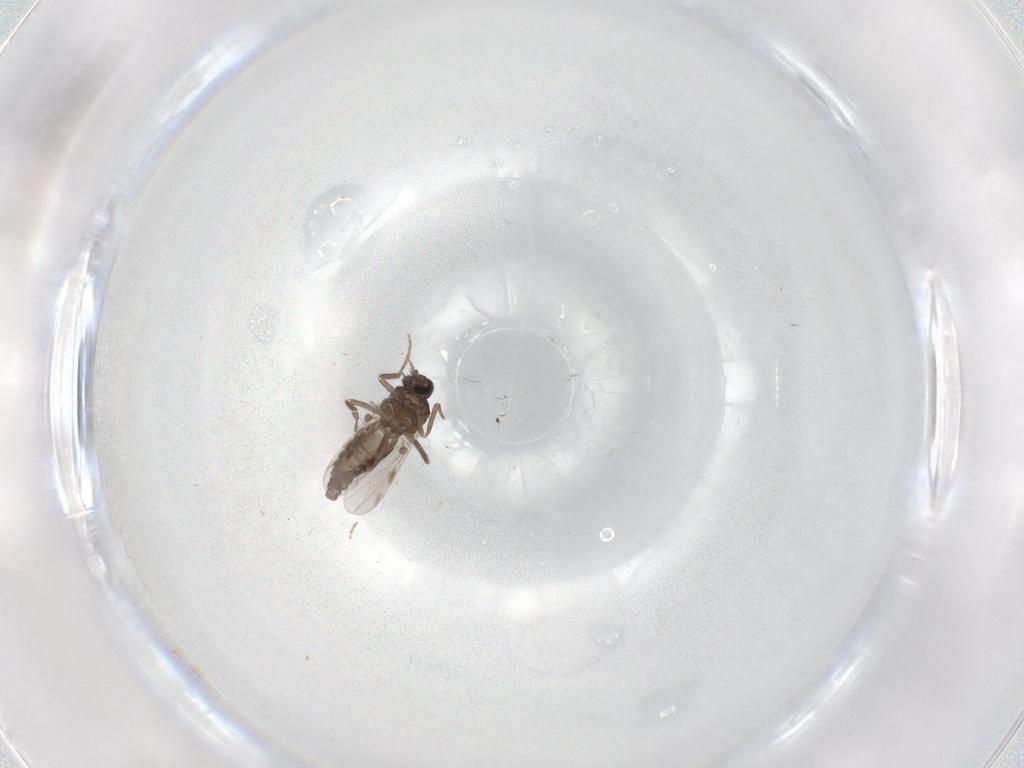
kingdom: Animalia
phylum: Arthropoda
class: Insecta
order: Diptera
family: Ceratopogonidae
